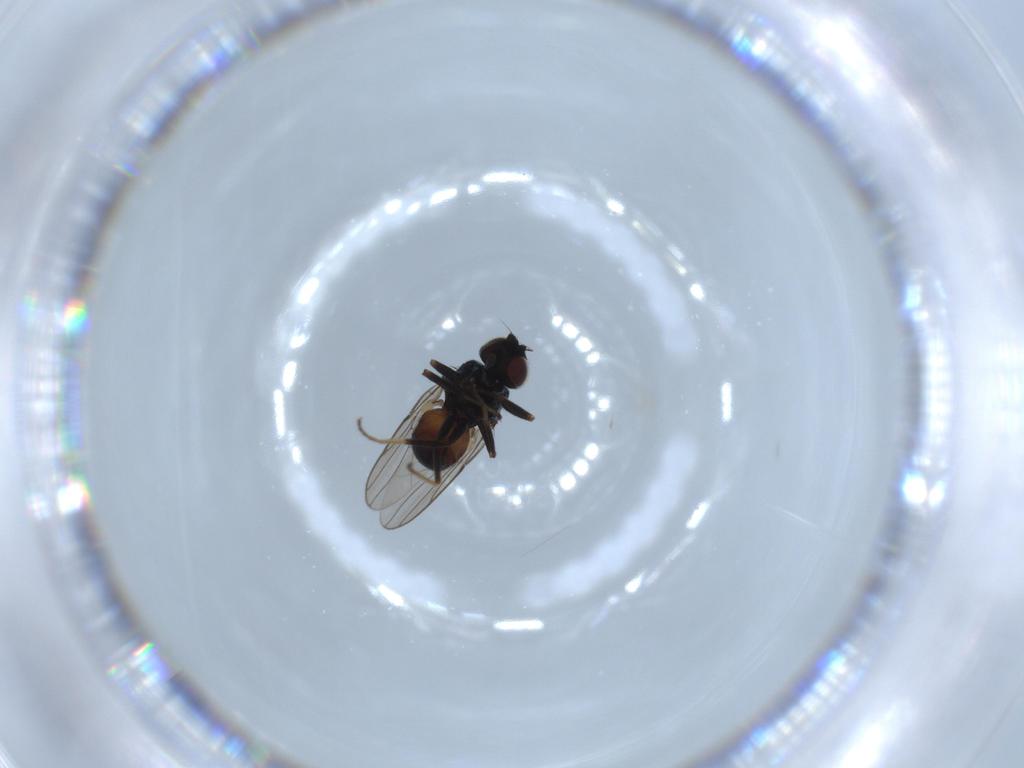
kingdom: Animalia
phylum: Arthropoda
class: Insecta
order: Diptera
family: Chloropidae
